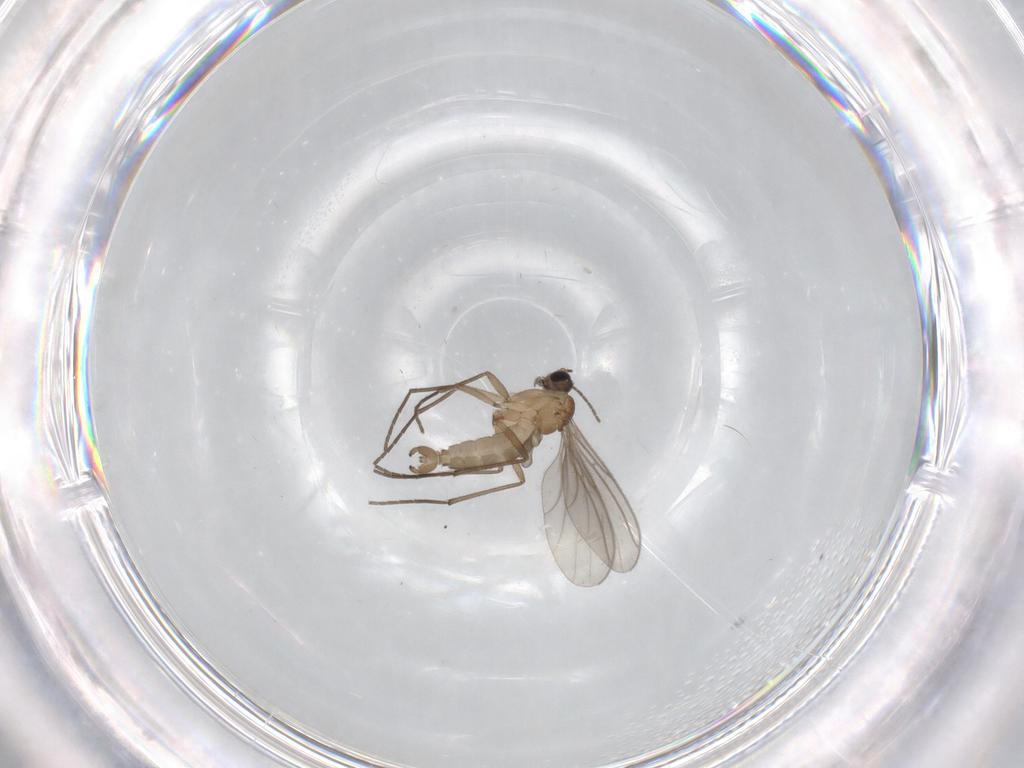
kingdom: Animalia
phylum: Arthropoda
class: Insecta
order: Diptera
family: Sciaridae
